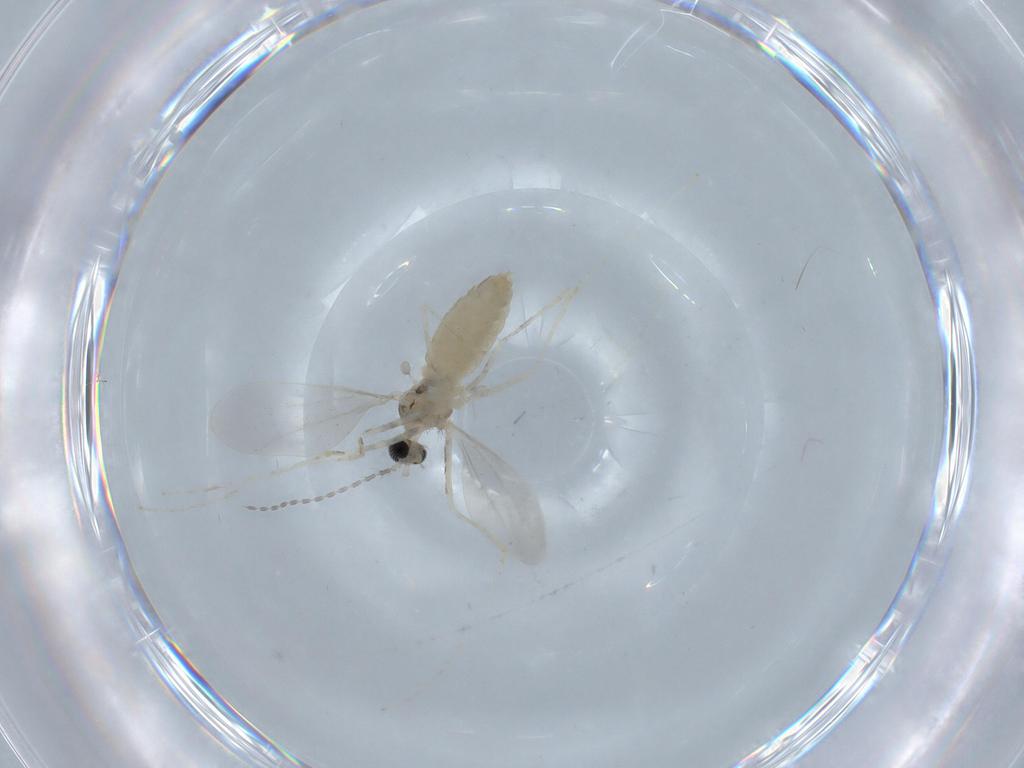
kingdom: Animalia
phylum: Arthropoda
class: Insecta
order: Diptera
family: Cecidomyiidae
